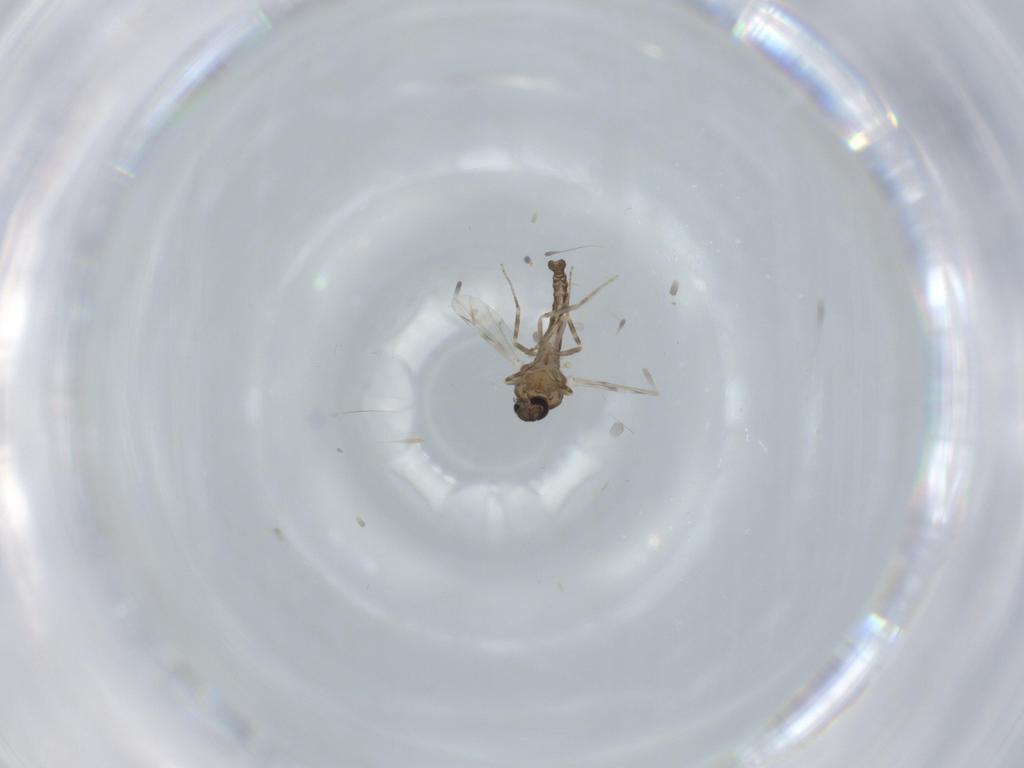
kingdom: Animalia
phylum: Arthropoda
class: Insecta
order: Diptera
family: Ceratopogonidae
